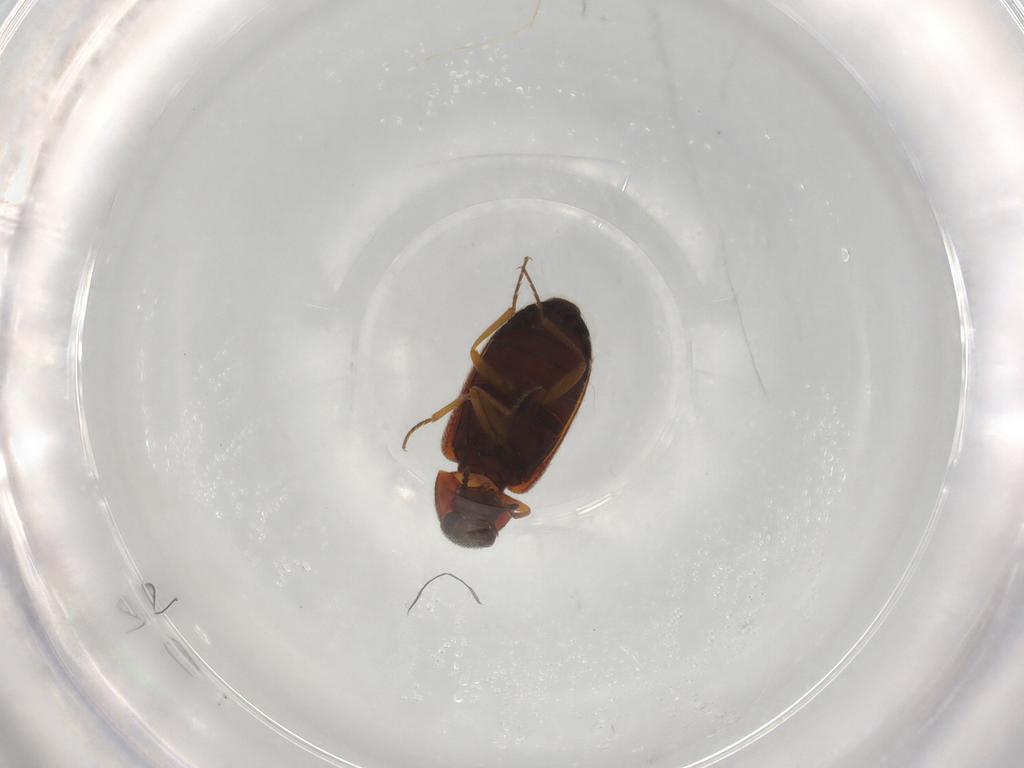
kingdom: Animalia
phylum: Arthropoda
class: Insecta
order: Coleoptera
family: Rhadalidae
